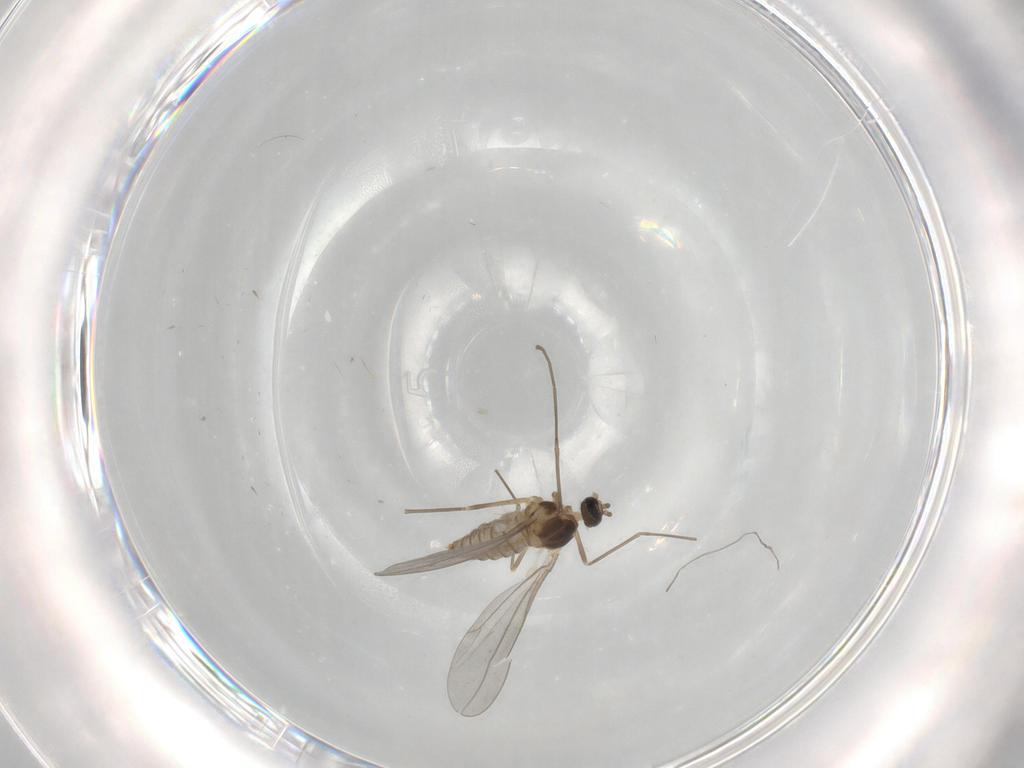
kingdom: Animalia
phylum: Arthropoda
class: Insecta
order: Diptera
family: Cecidomyiidae
